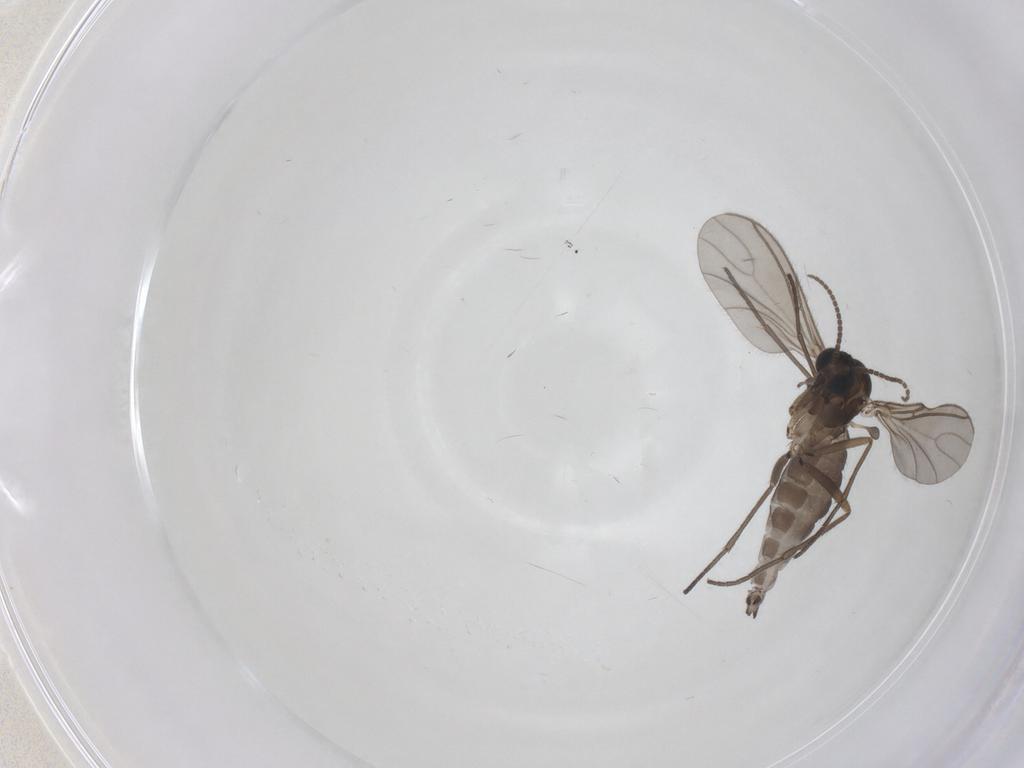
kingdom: Animalia
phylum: Arthropoda
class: Insecta
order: Diptera
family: Sciaridae
